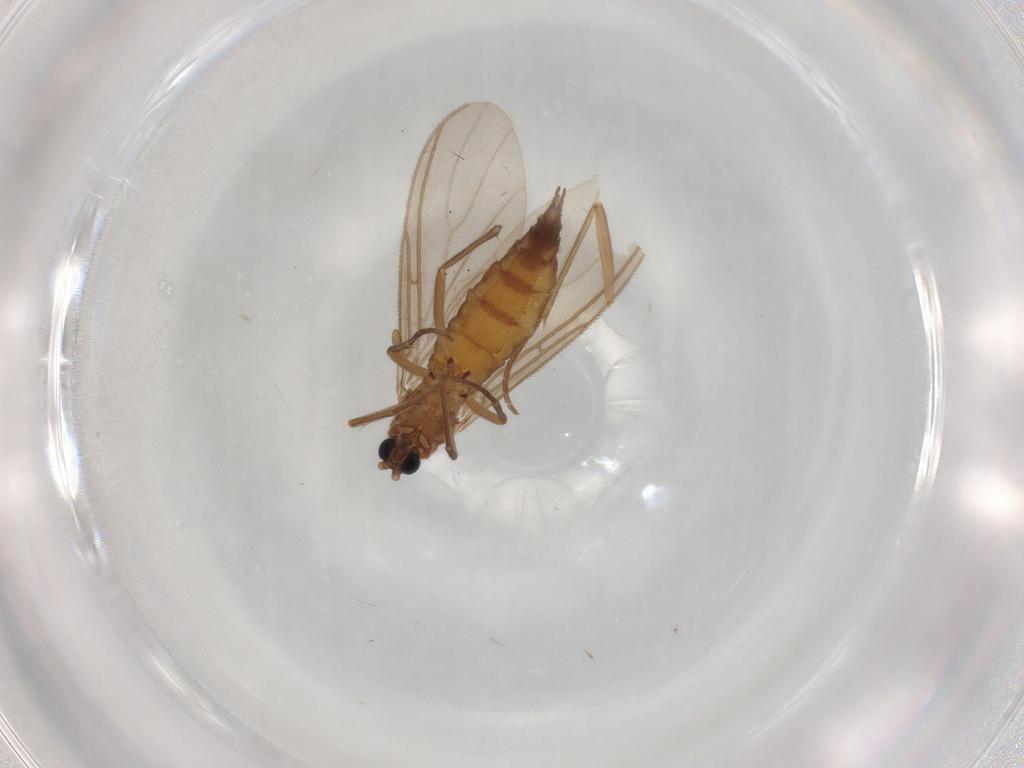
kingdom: Animalia
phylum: Arthropoda
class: Insecta
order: Diptera
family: Sciaridae
